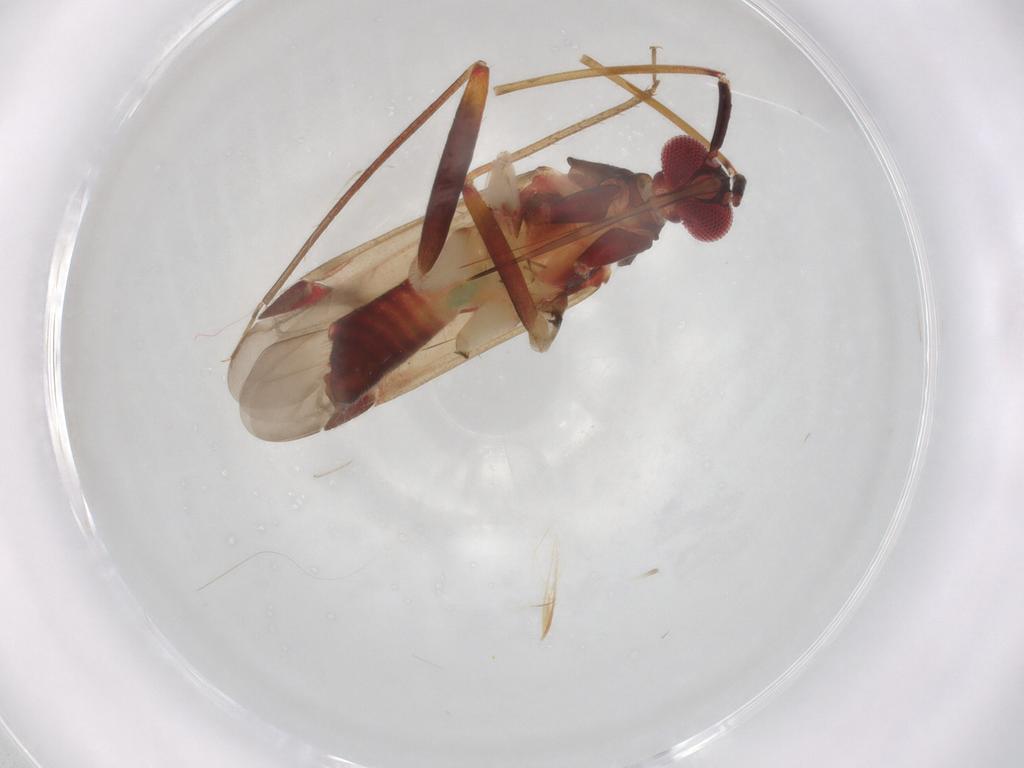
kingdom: Animalia
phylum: Arthropoda
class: Insecta
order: Hemiptera
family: Miridae
